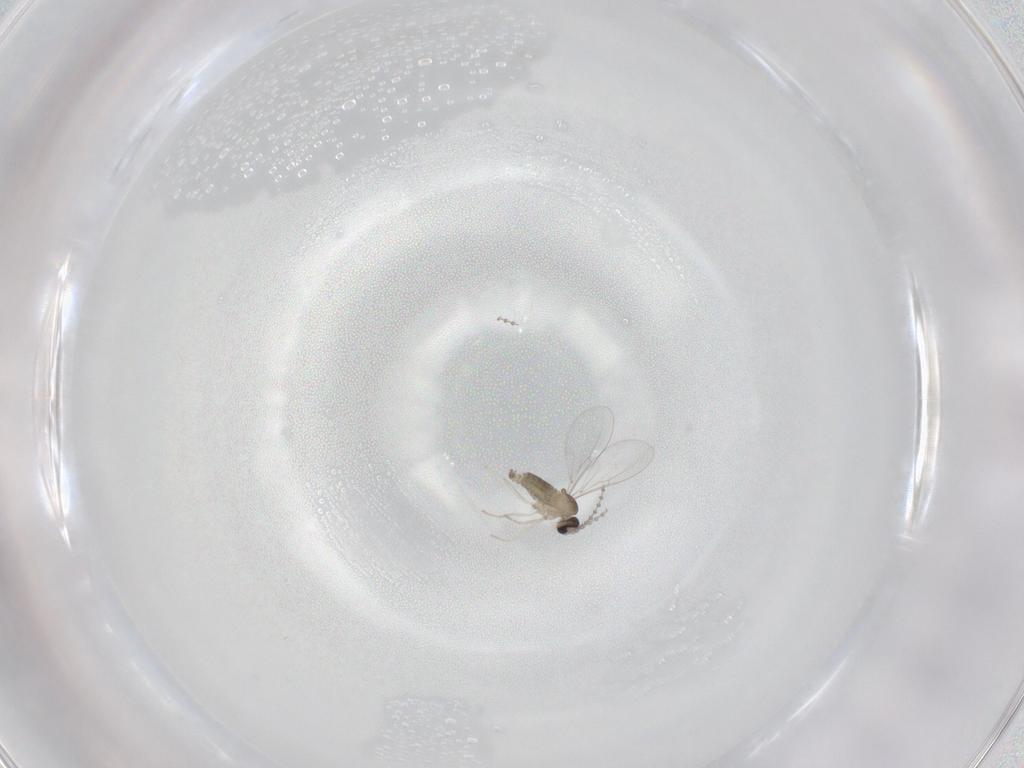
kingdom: Animalia
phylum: Arthropoda
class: Insecta
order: Diptera
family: Cecidomyiidae
